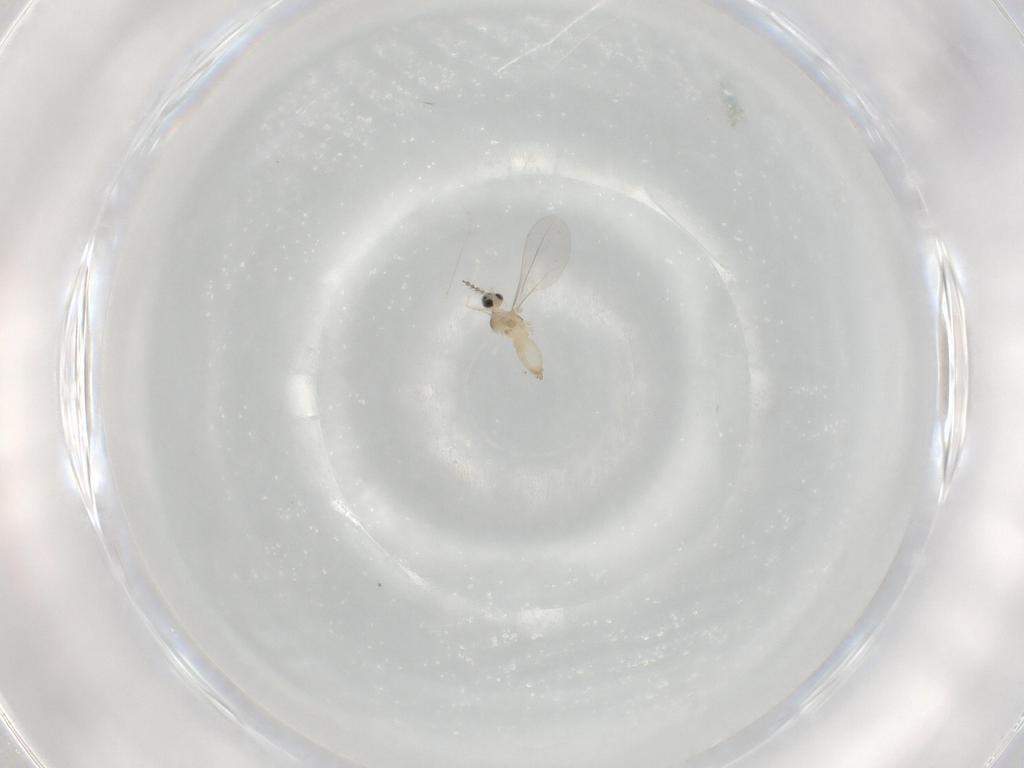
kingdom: Animalia
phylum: Arthropoda
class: Insecta
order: Diptera
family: Cecidomyiidae
